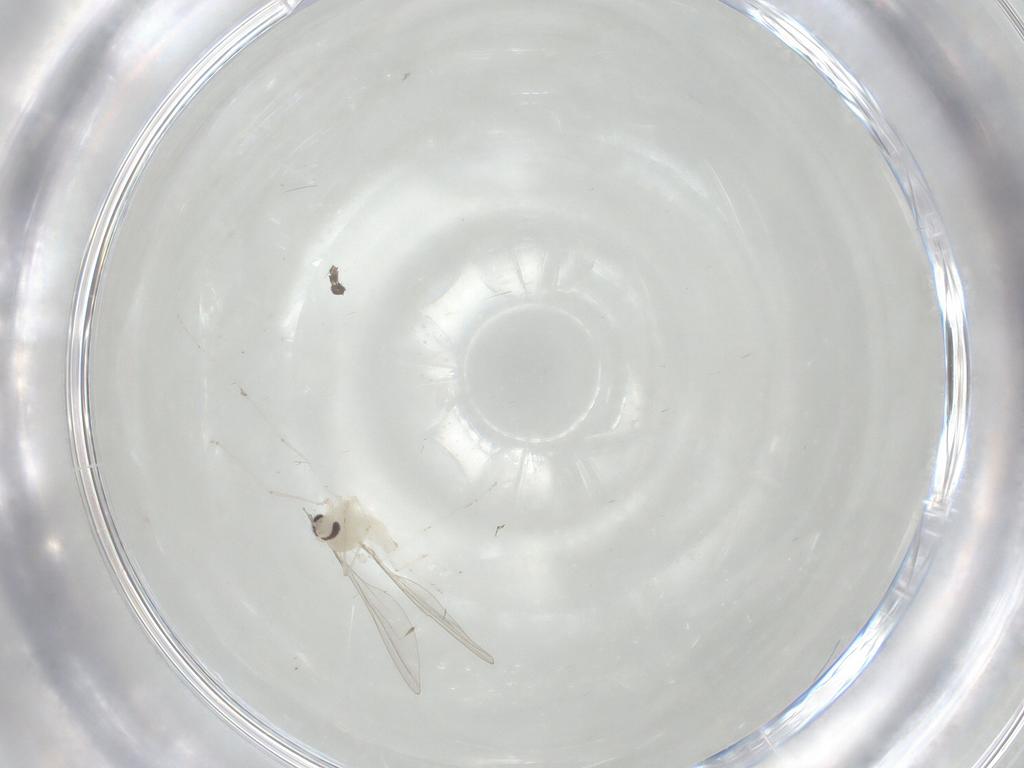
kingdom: Animalia
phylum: Arthropoda
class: Insecta
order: Diptera
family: Cecidomyiidae
